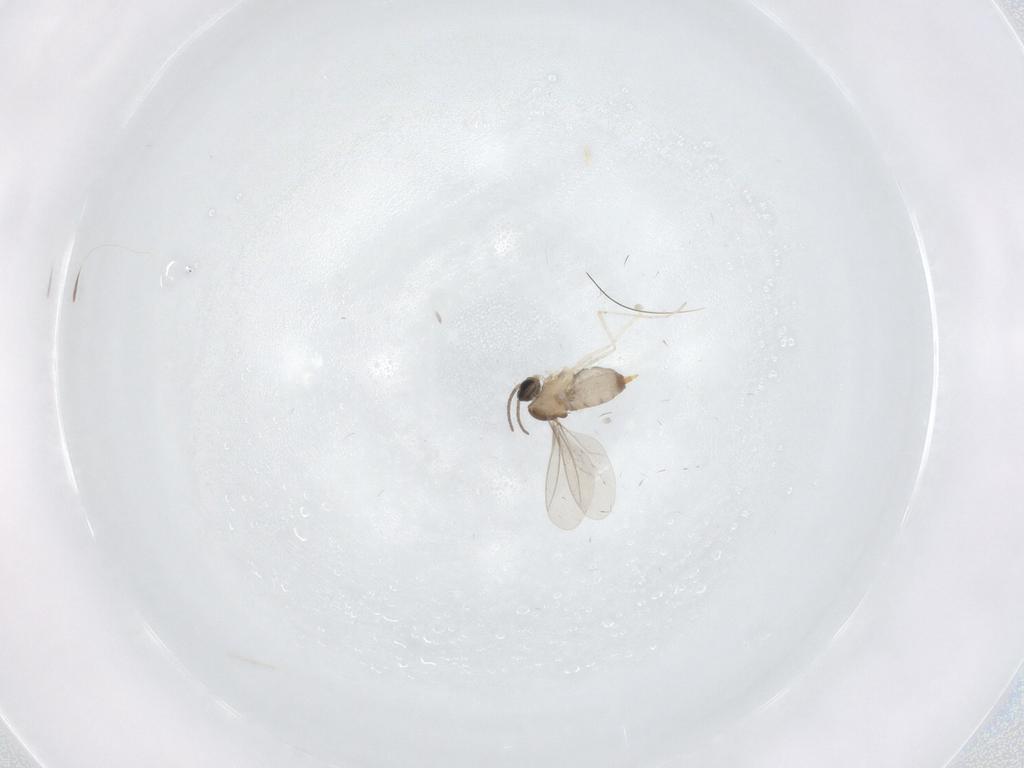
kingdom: Animalia
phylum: Arthropoda
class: Insecta
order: Diptera
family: Cecidomyiidae
